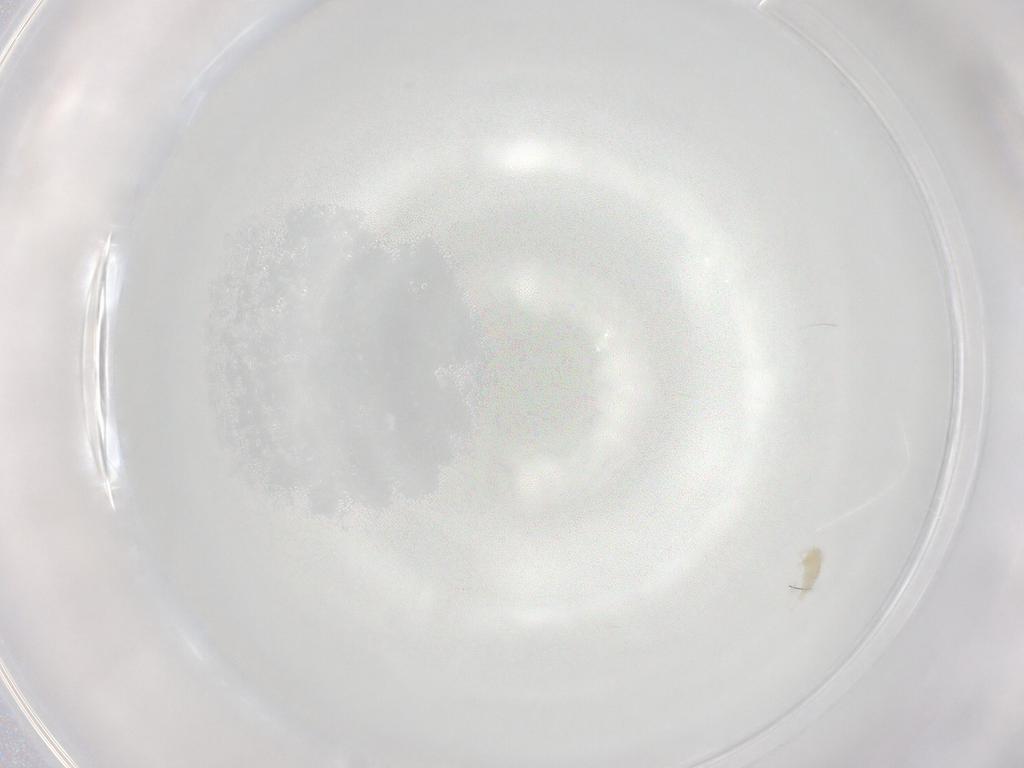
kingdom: Animalia
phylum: Arthropoda
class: Arachnida
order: Trombidiformes
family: Eupodidae
